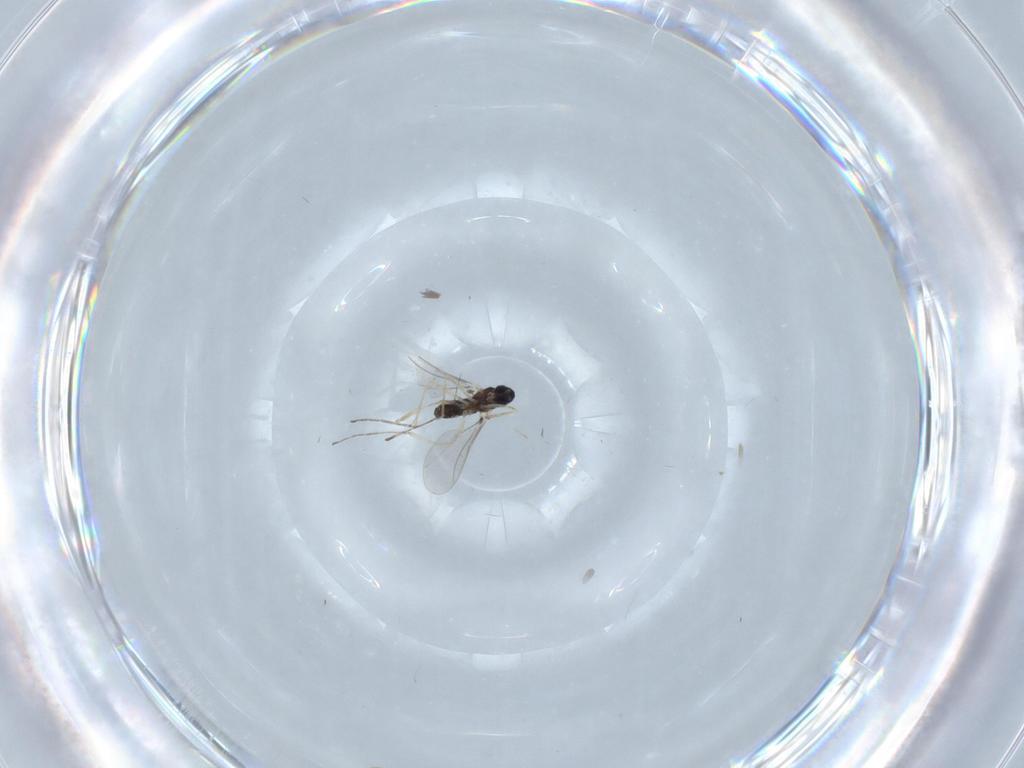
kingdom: Animalia
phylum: Arthropoda
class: Insecta
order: Diptera
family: Cecidomyiidae
